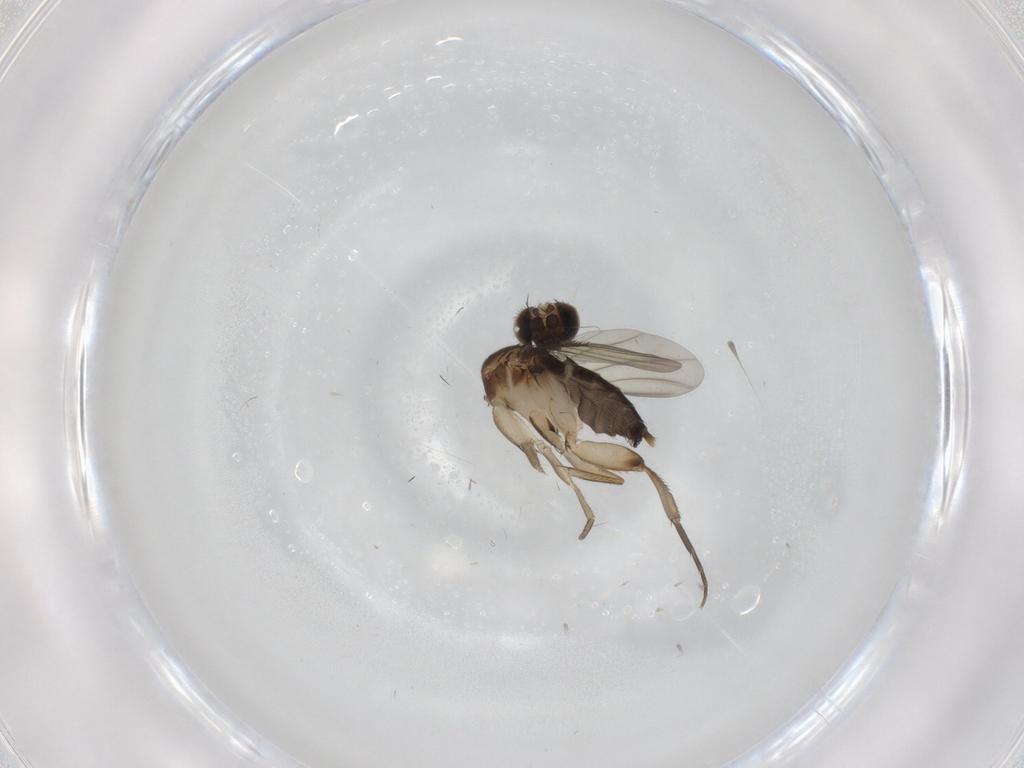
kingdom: Animalia
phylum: Arthropoda
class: Insecta
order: Diptera
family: Phoridae
